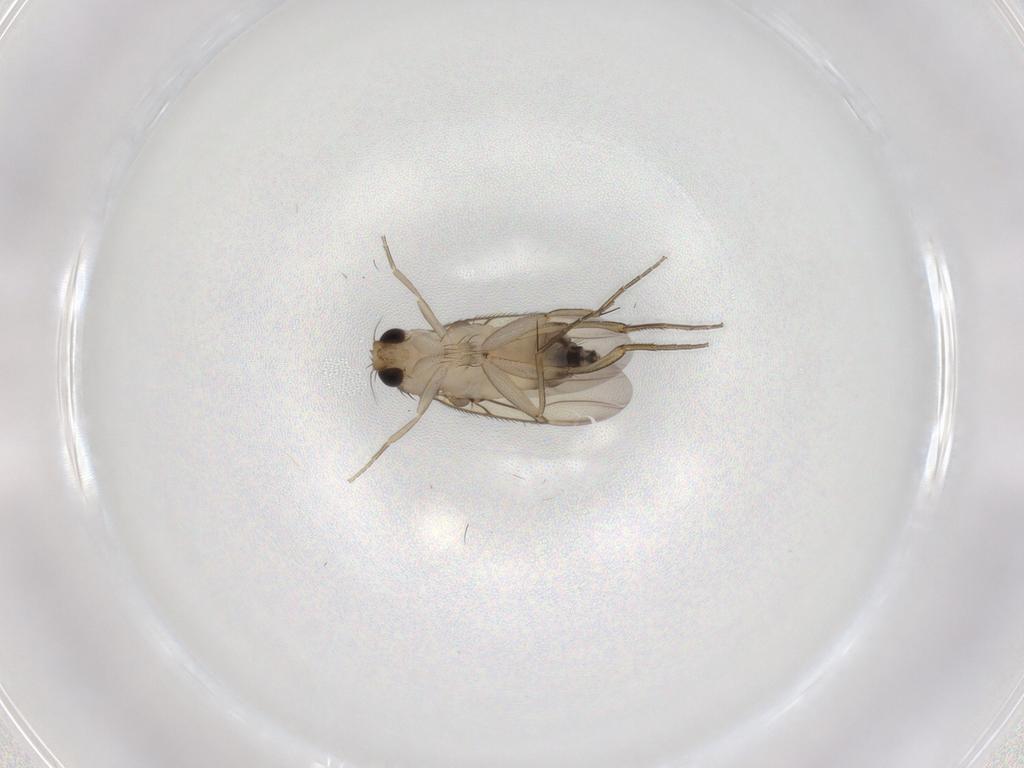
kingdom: Animalia
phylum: Arthropoda
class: Insecta
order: Diptera
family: Phoridae
